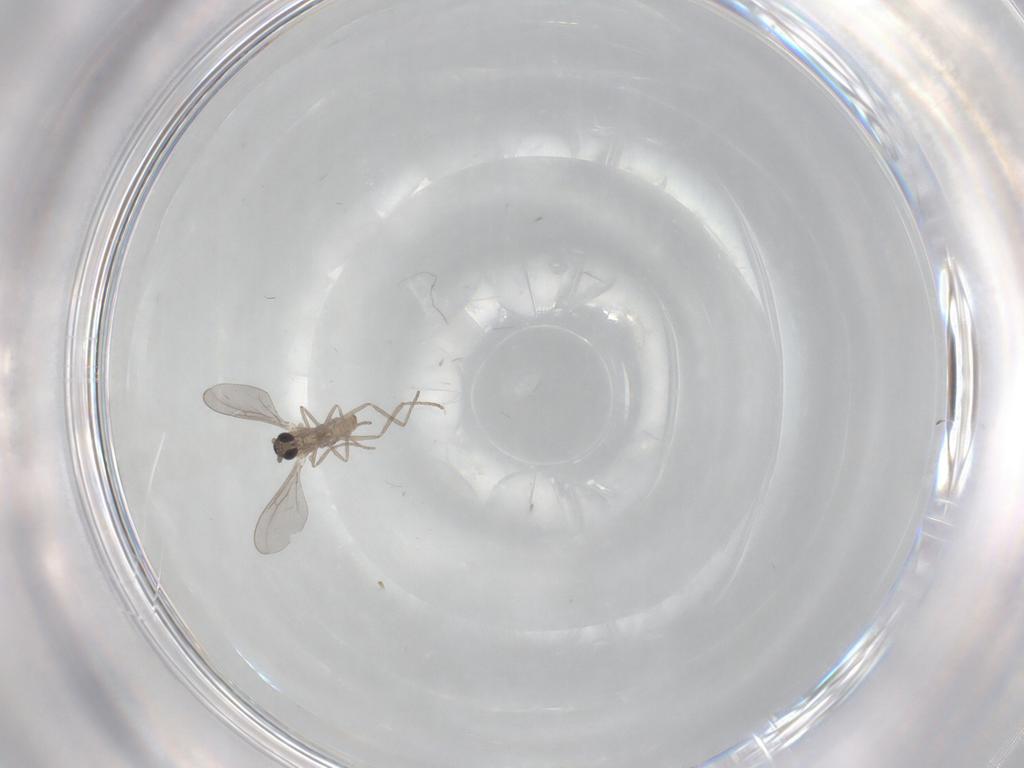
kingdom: Animalia
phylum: Arthropoda
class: Insecta
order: Diptera
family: Cecidomyiidae
